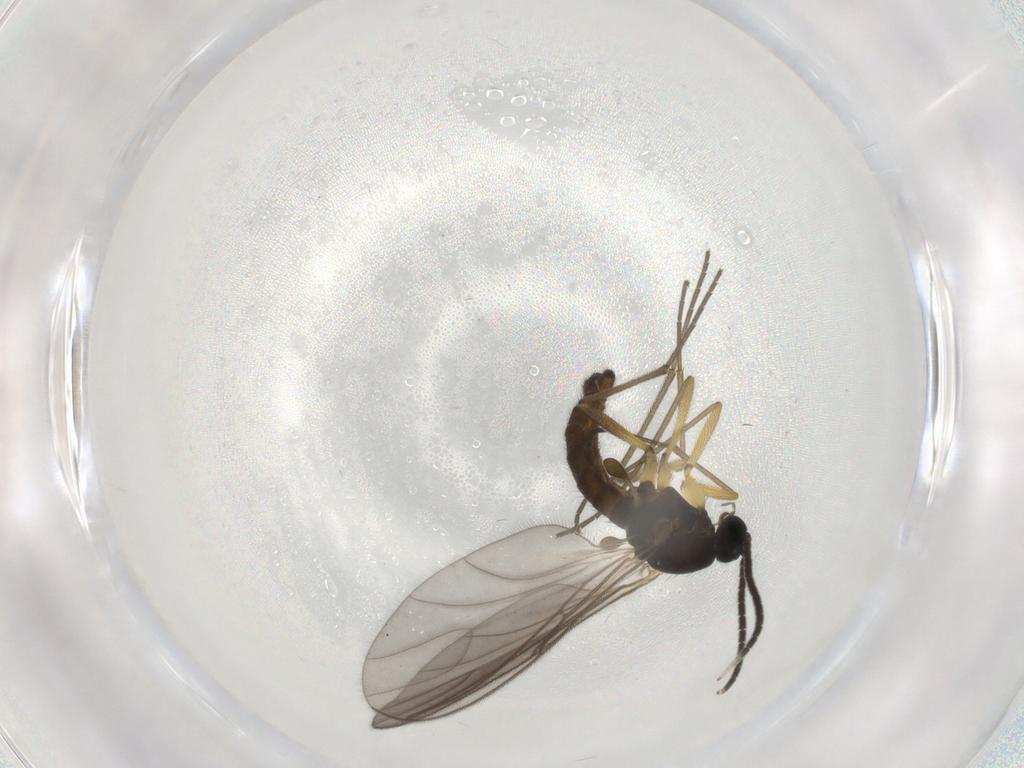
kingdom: Animalia
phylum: Arthropoda
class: Insecta
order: Diptera
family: Sciaridae
